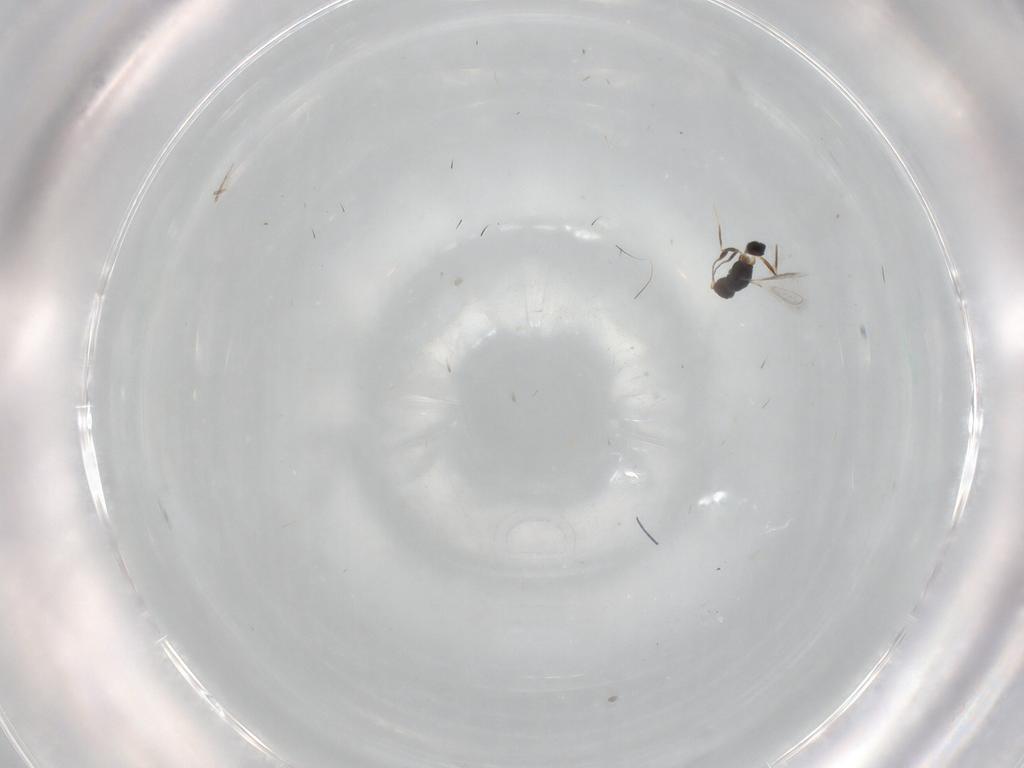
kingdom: Animalia
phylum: Arthropoda
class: Insecta
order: Hymenoptera
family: Mymaridae
